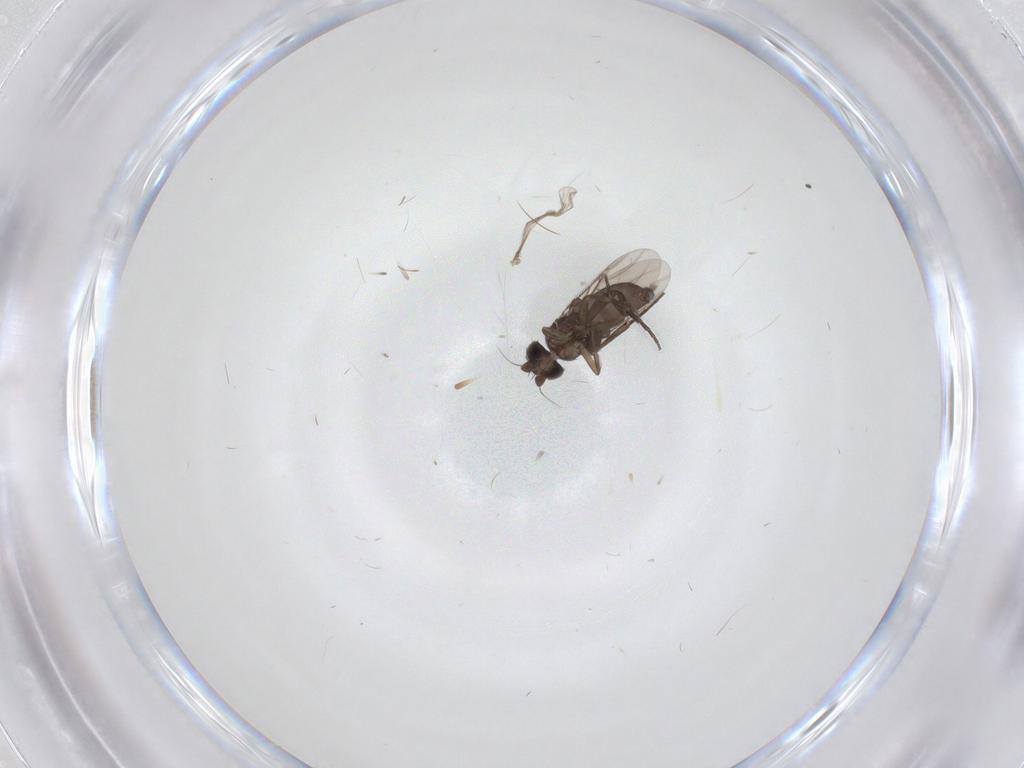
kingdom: Animalia
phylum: Arthropoda
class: Insecta
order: Diptera
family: Phoridae
